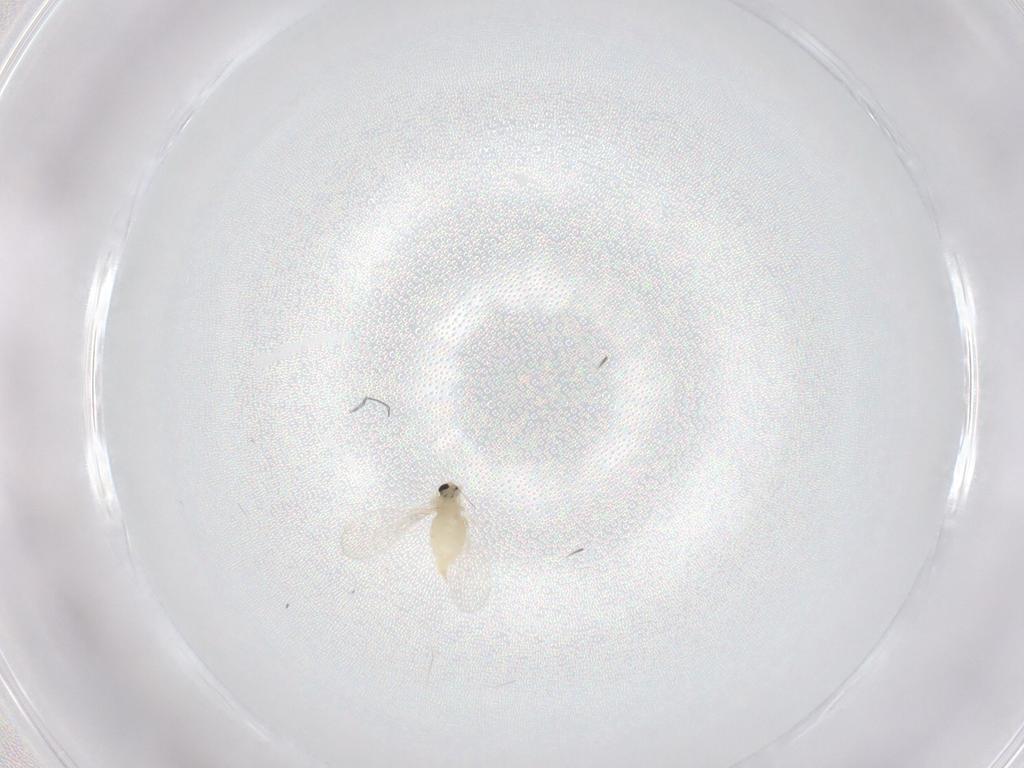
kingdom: Animalia
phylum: Arthropoda
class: Insecta
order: Diptera
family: Cecidomyiidae
